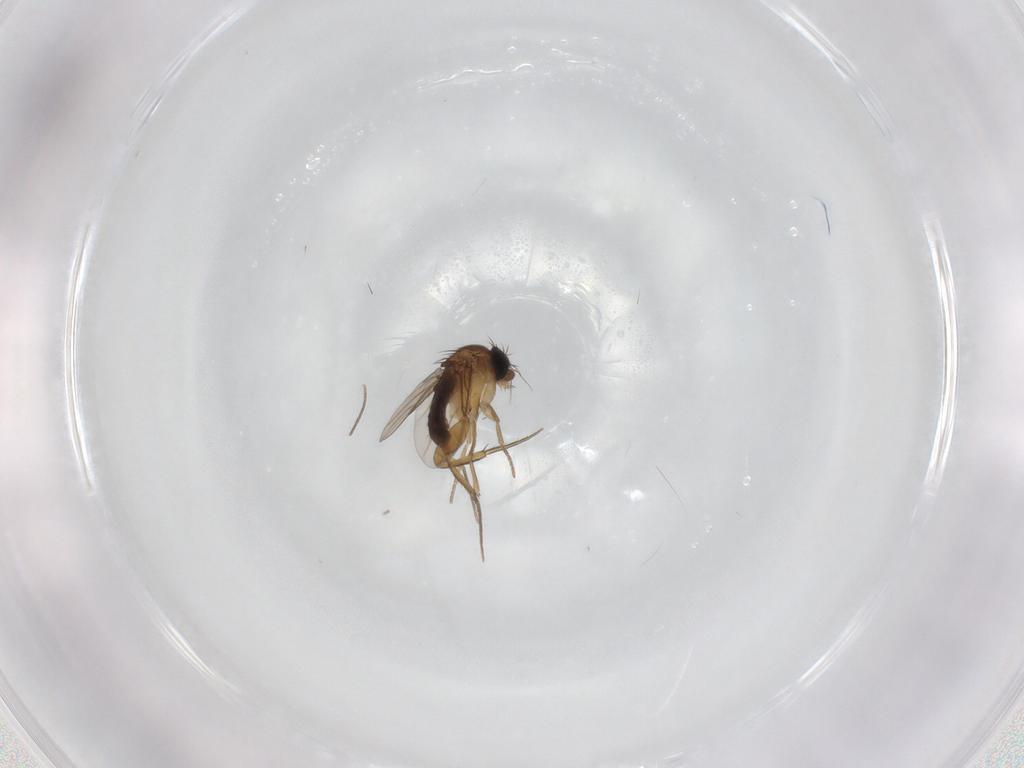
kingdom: Animalia
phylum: Arthropoda
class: Insecta
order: Diptera
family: Phoridae
